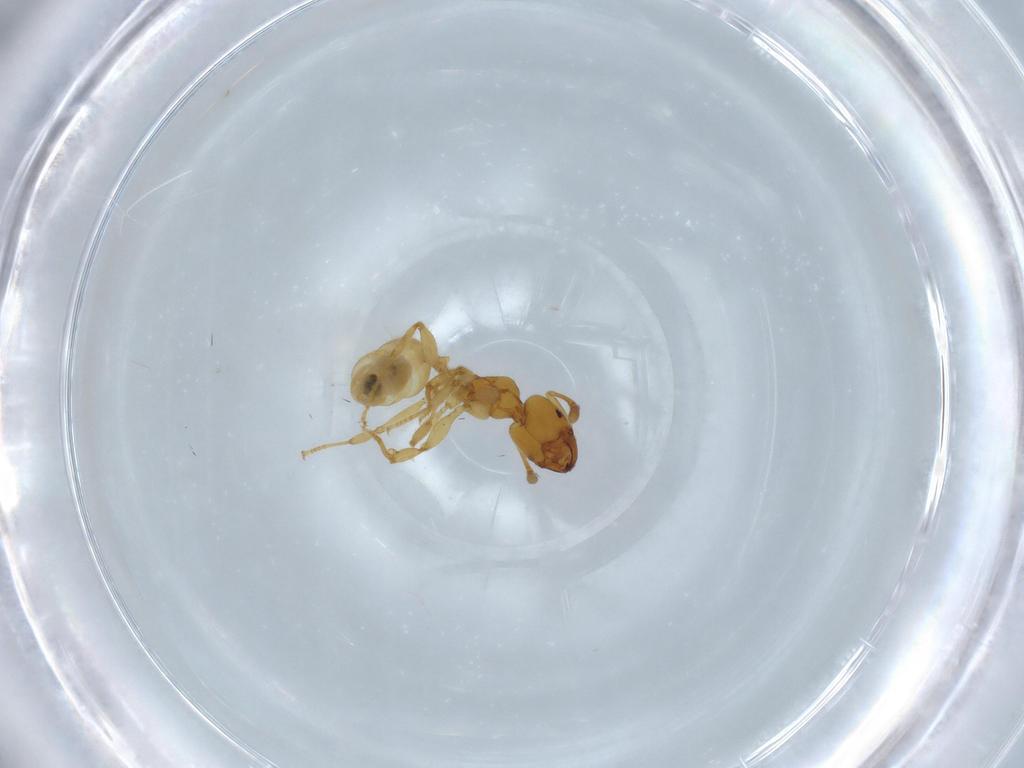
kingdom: Animalia
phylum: Arthropoda
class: Insecta
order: Hymenoptera
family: Formicidae
